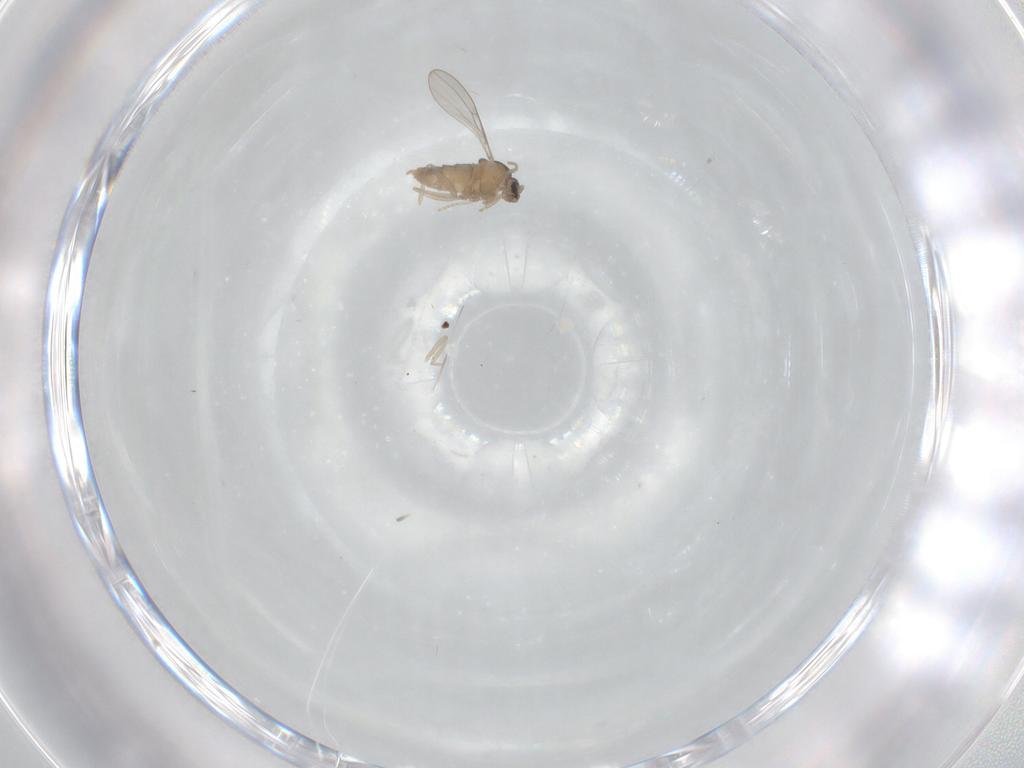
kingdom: Animalia
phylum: Arthropoda
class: Insecta
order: Diptera
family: Cecidomyiidae
